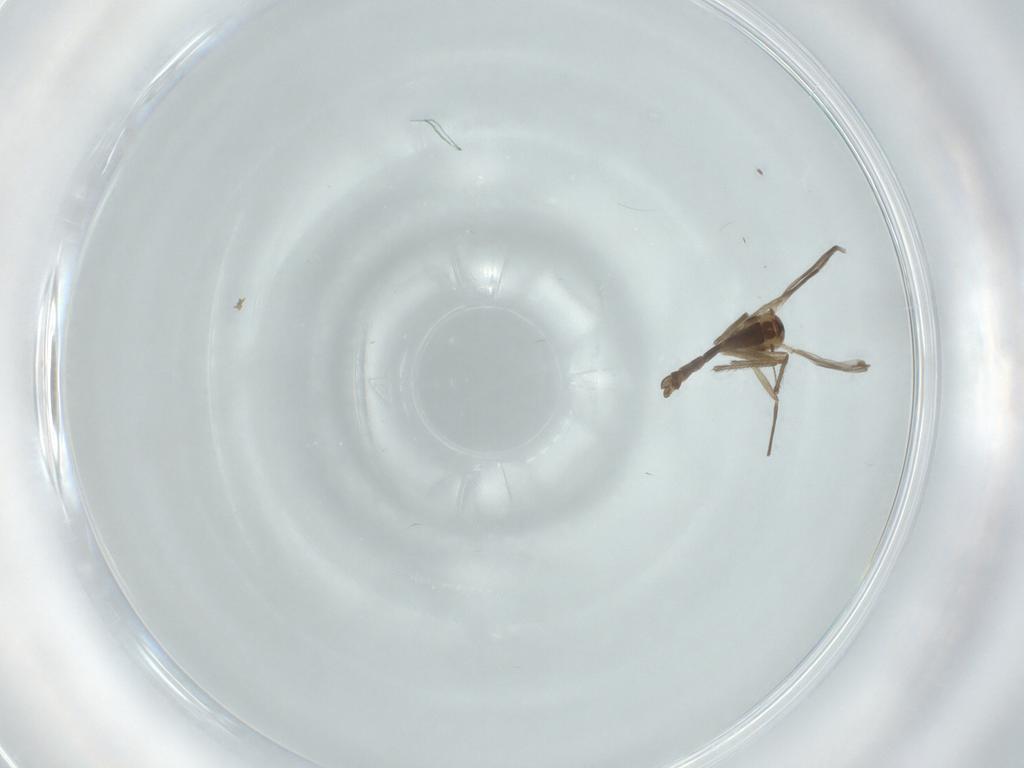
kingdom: Animalia
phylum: Arthropoda
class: Insecta
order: Diptera
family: Chironomidae
